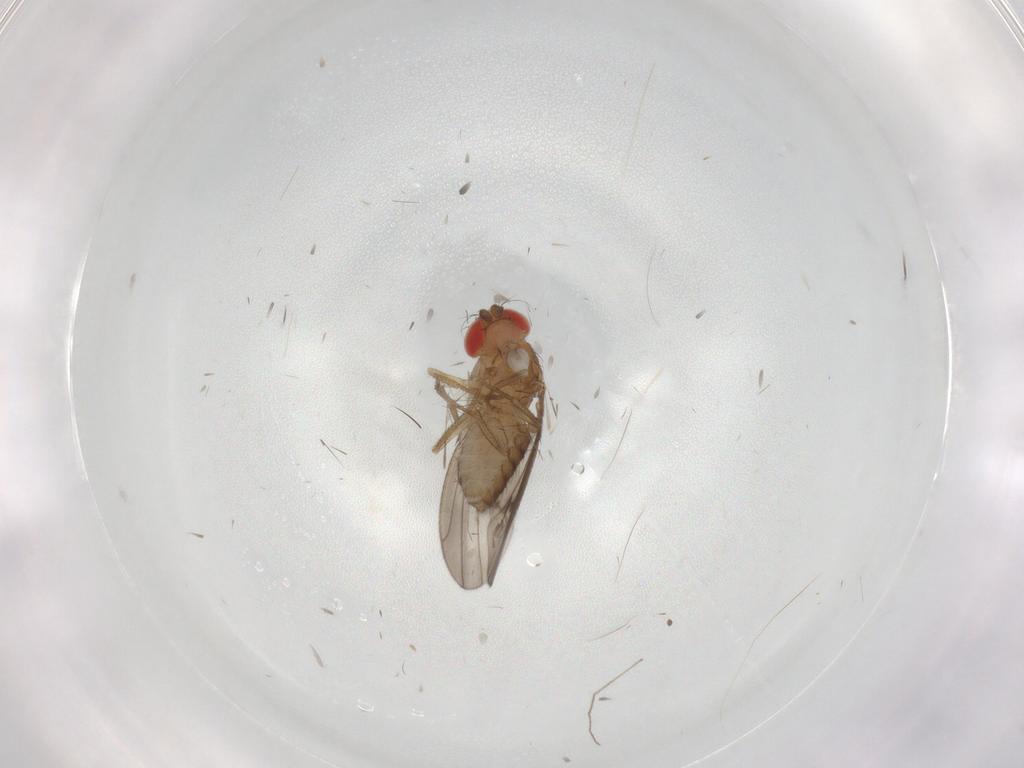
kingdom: Animalia
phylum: Arthropoda
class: Insecta
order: Diptera
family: Drosophilidae
